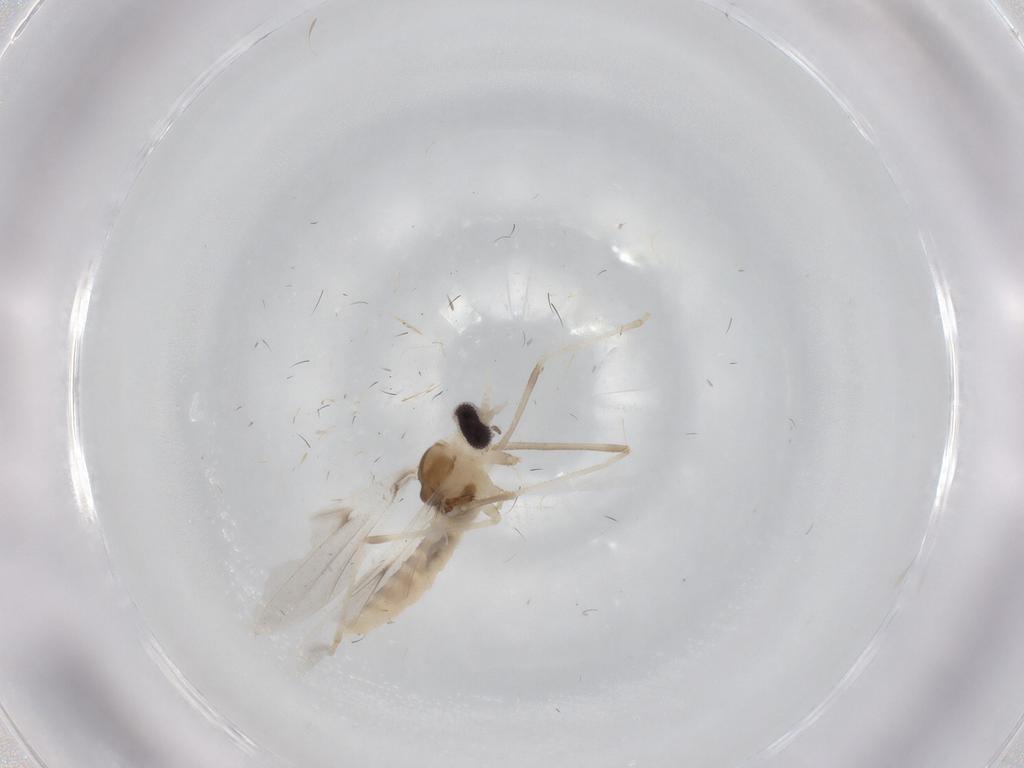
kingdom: Animalia
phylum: Arthropoda
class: Insecta
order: Diptera
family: Cecidomyiidae
